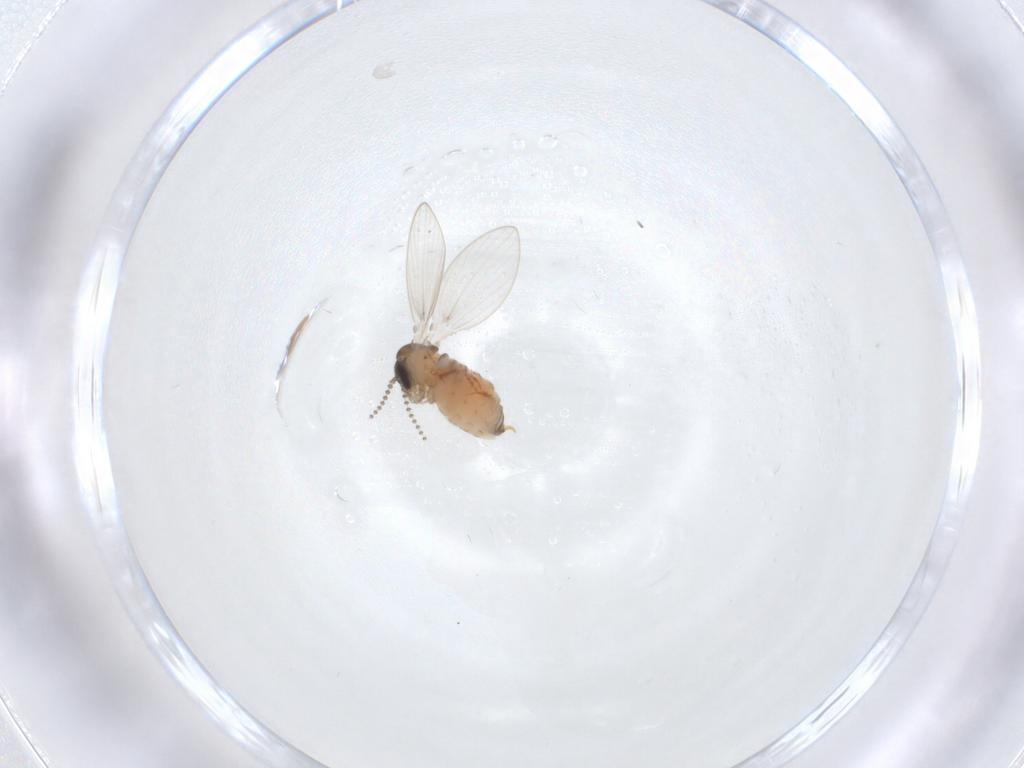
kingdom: Animalia
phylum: Arthropoda
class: Insecta
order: Diptera
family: Psychodidae
